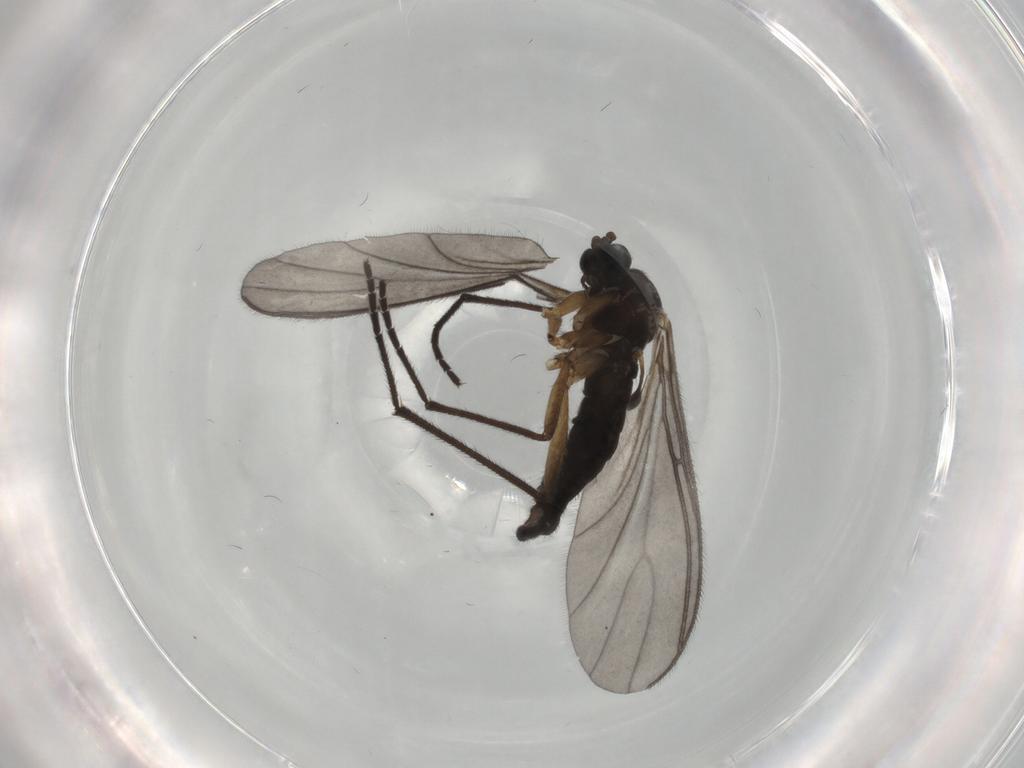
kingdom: Animalia
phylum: Arthropoda
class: Insecta
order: Diptera
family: Sciaridae
